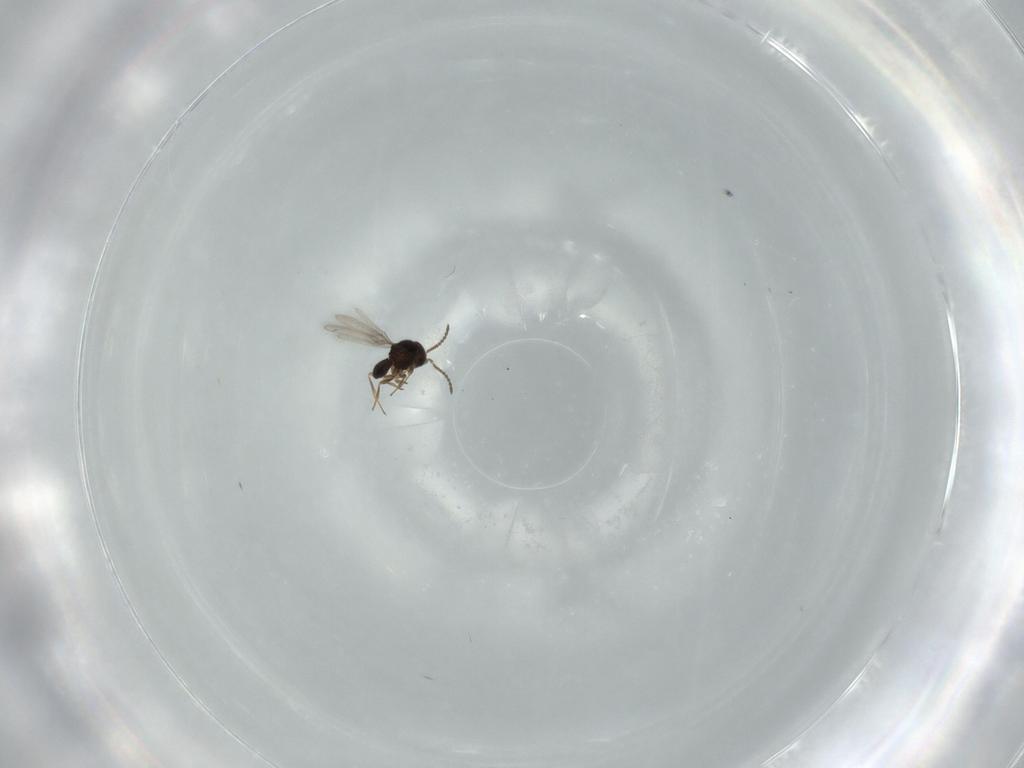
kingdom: Animalia
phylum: Arthropoda
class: Insecta
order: Hymenoptera
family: Scelionidae
